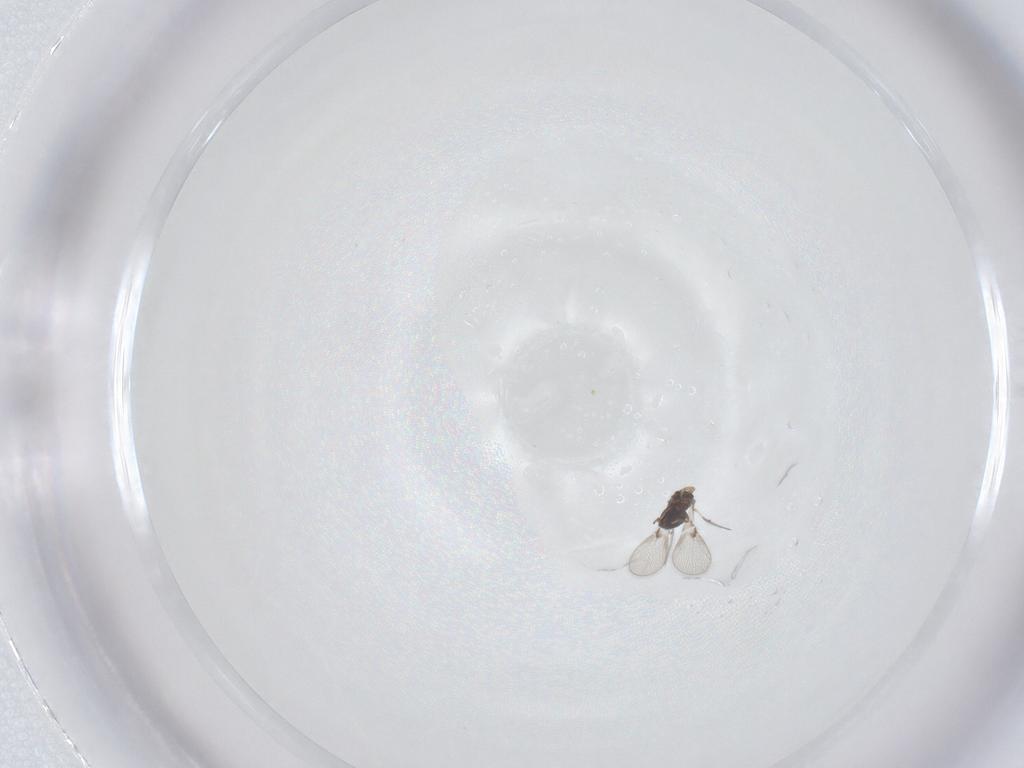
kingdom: Animalia
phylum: Arthropoda
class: Insecta
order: Hymenoptera
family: Trichogrammatidae
